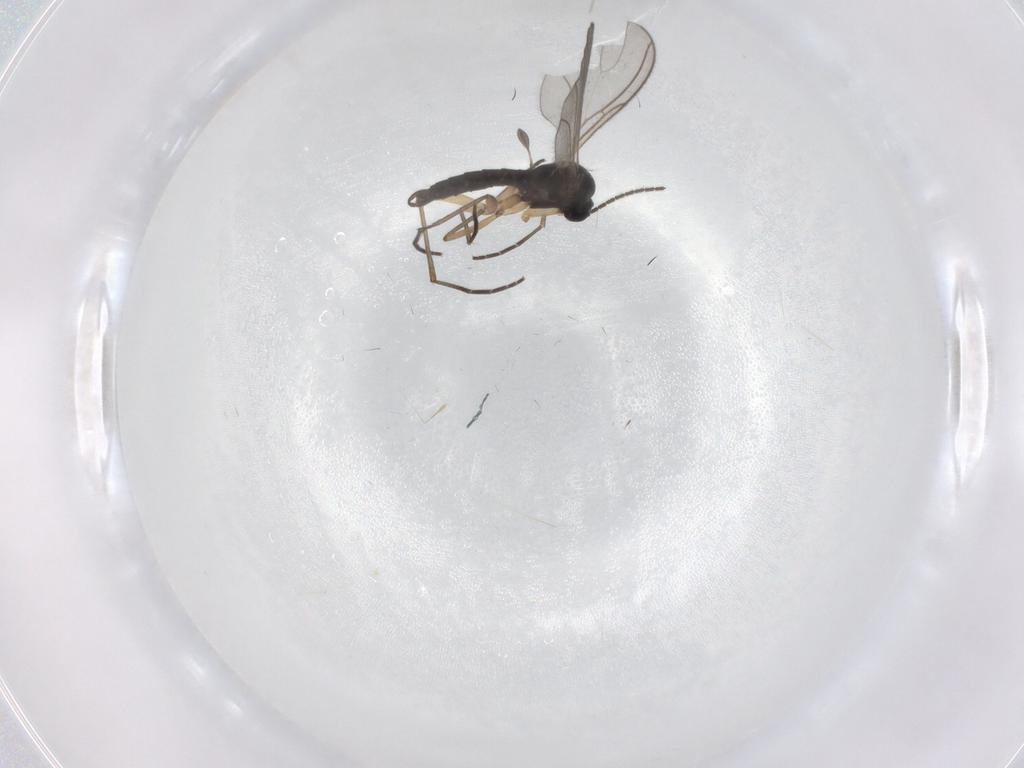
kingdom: Animalia
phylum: Arthropoda
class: Insecta
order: Diptera
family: Sciaridae
